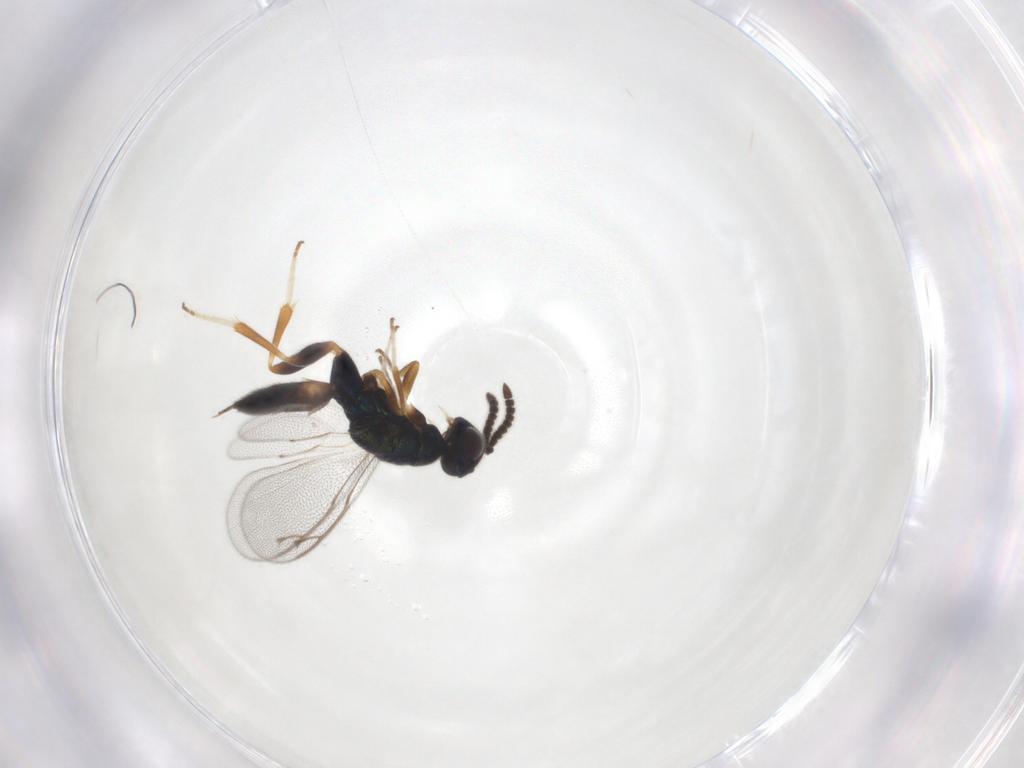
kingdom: Animalia
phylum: Arthropoda
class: Insecta
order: Hymenoptera
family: Cleonyminae
